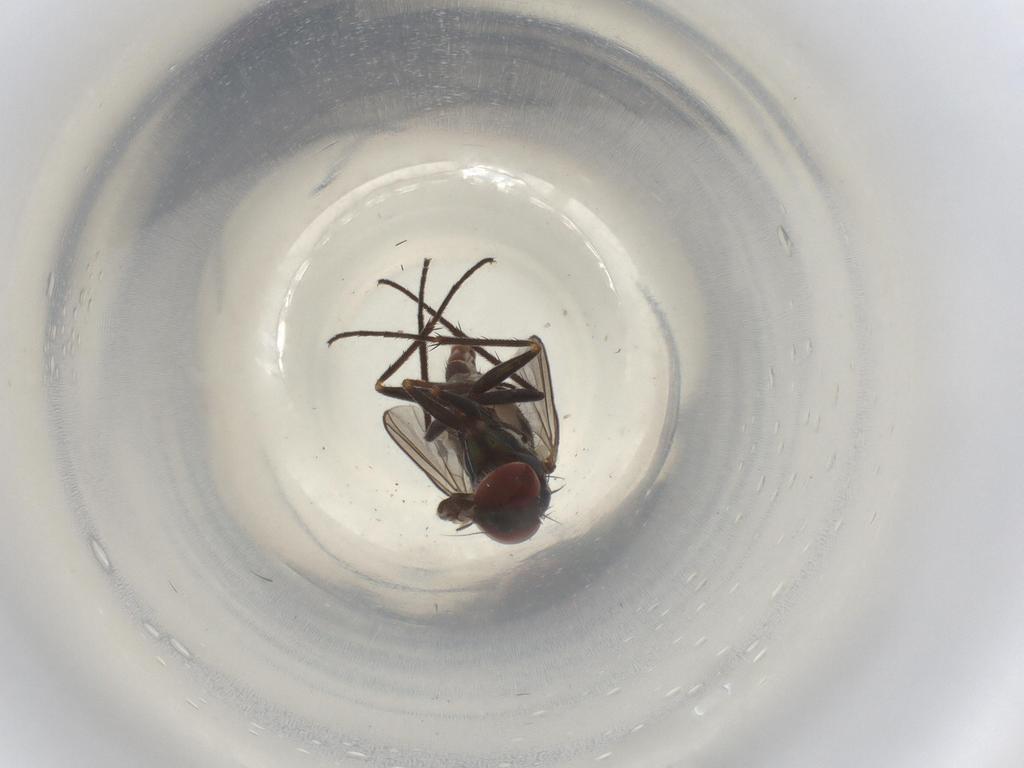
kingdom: Animalia
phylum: Arthropoda
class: Insecta
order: Diptera
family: Dolichopodidae
